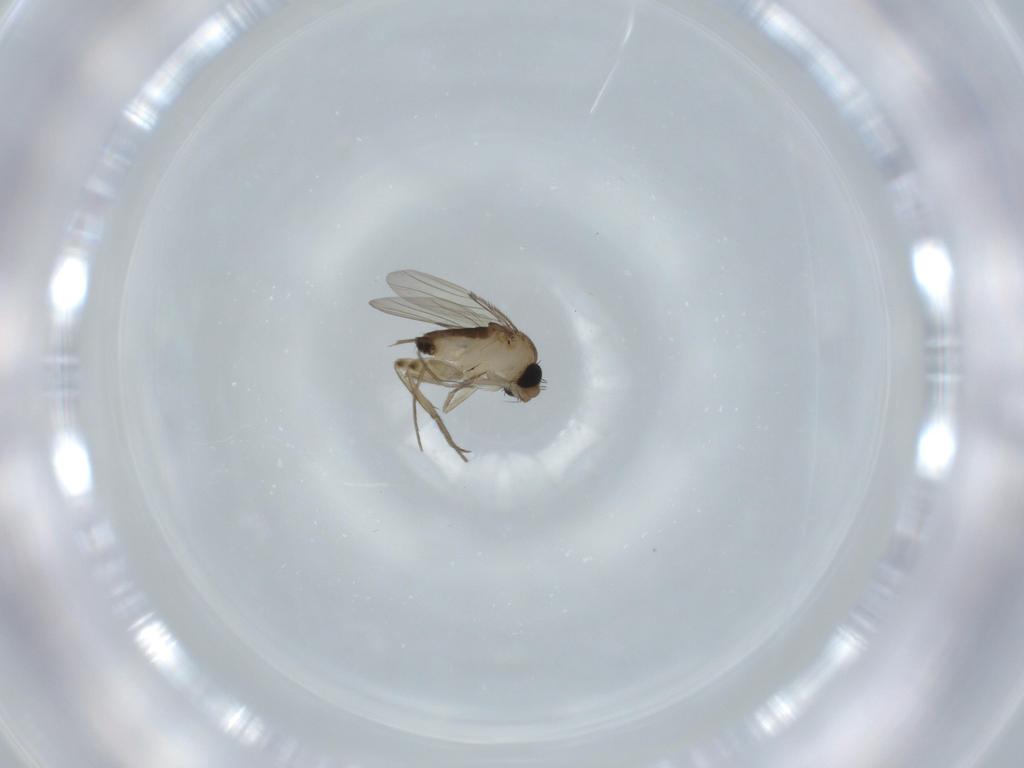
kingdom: Animalia
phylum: Arthropoda
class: Insecta
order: Diptera
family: Phoridae
